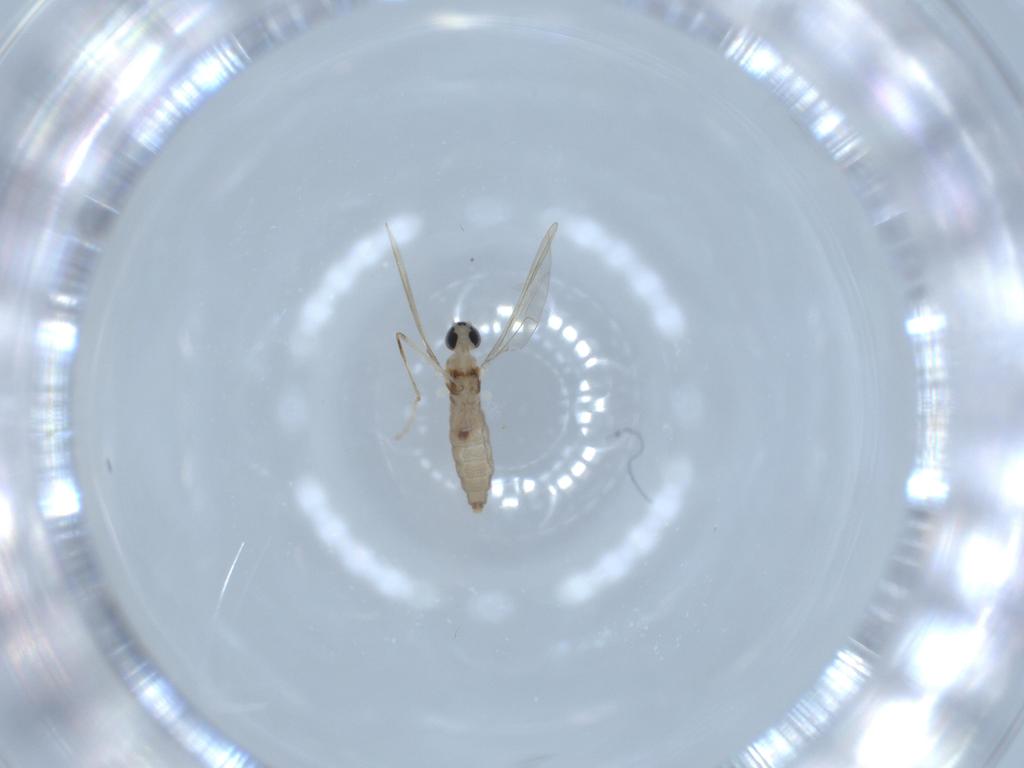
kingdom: Animalia
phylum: Arthropoda
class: Insecta
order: Diptera
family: Cecidomyiidae
